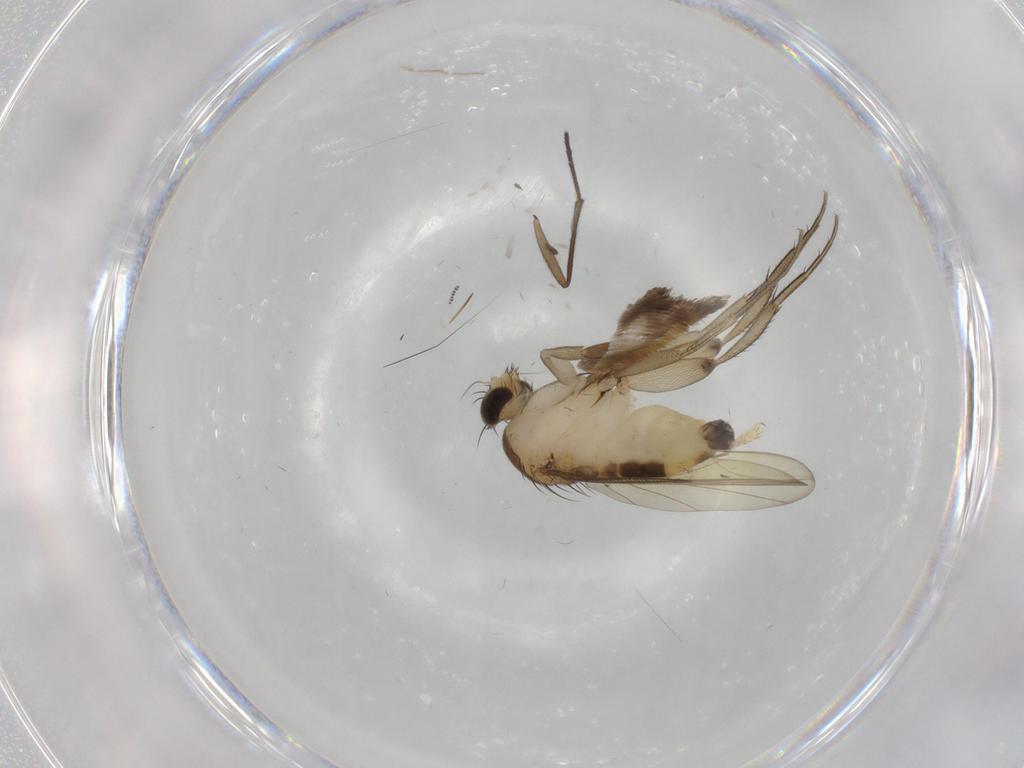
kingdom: Animalia
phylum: Arthropoda
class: Insecta
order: Diptera
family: Phoridae
